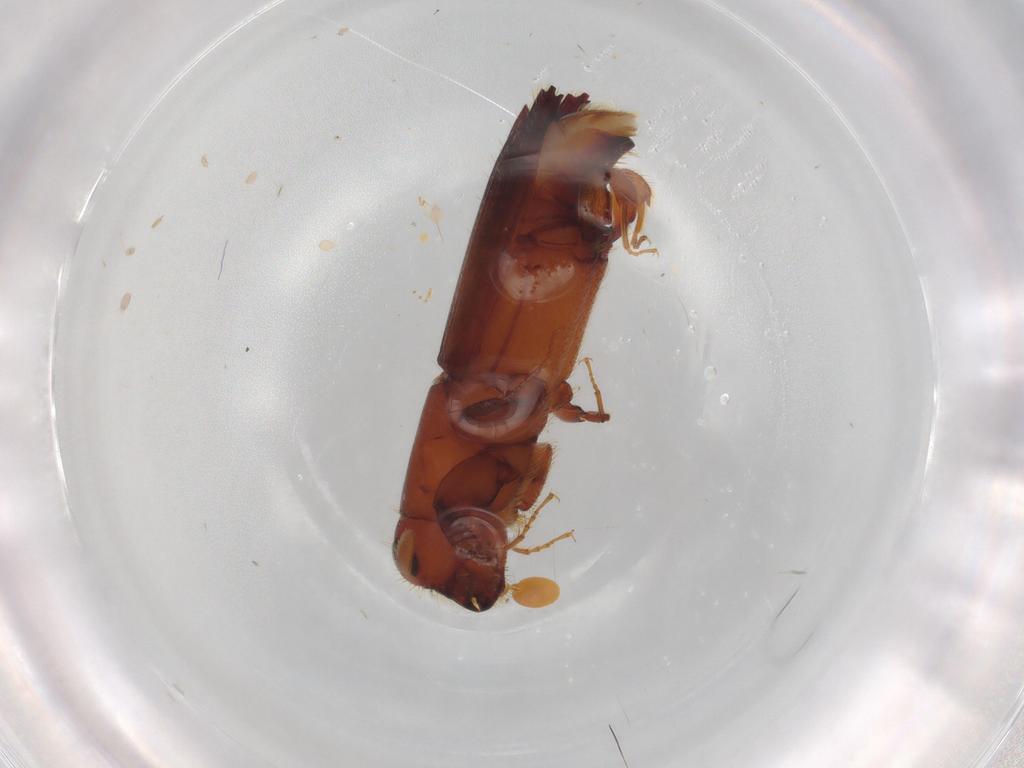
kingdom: Animalia
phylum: Arthropoda
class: Insecta
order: Coleoptera
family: Curculionidae
